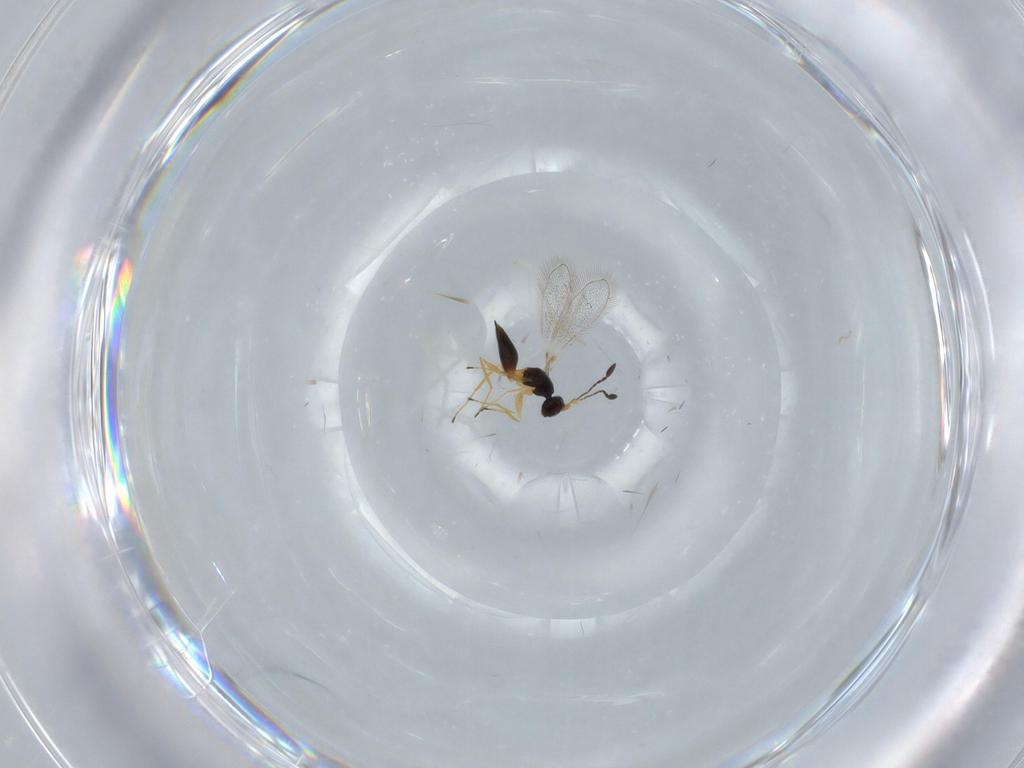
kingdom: Animalia
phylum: Arthropoda
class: Insecta
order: Hymenoptera
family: Mymaridae
